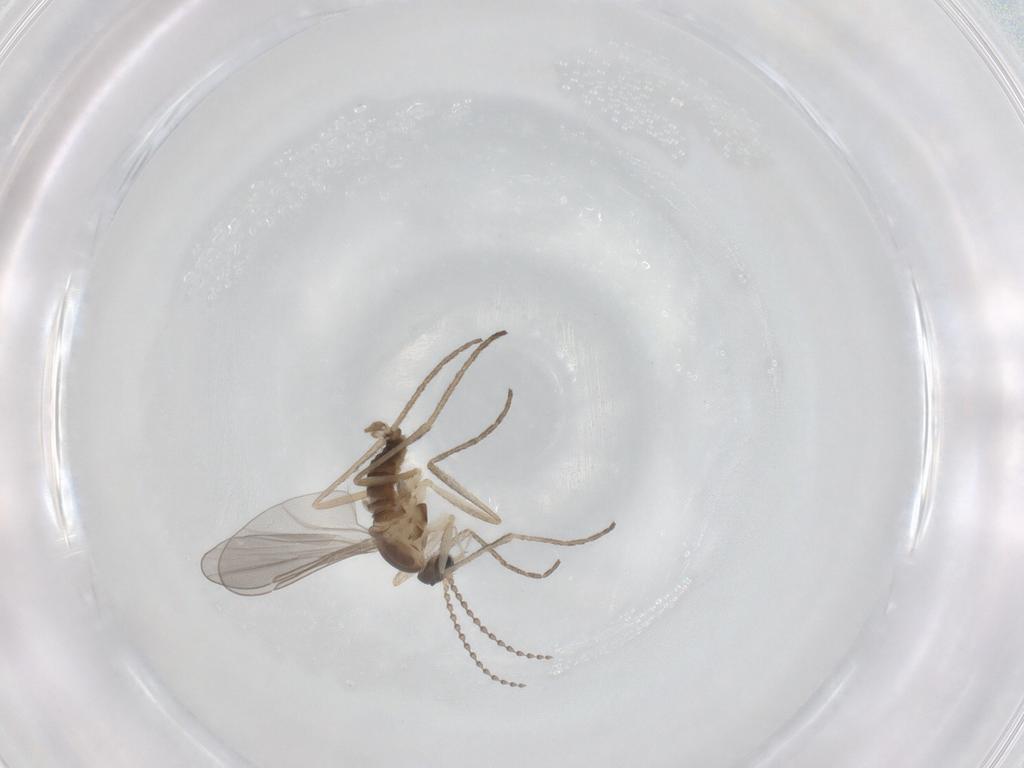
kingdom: Animalia
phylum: Arthropoda
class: Insecta
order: Diptera
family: Cecidomyiidae
